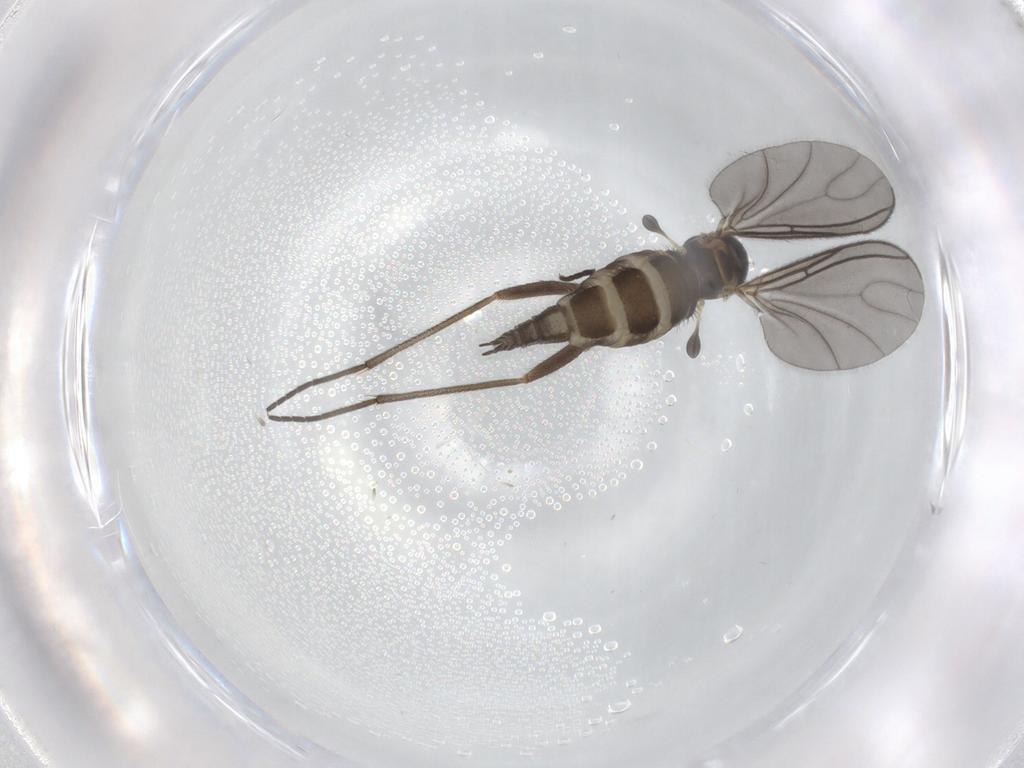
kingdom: Animalia
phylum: Arthropoda
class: Insecta
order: Diptera
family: Sciaridae
